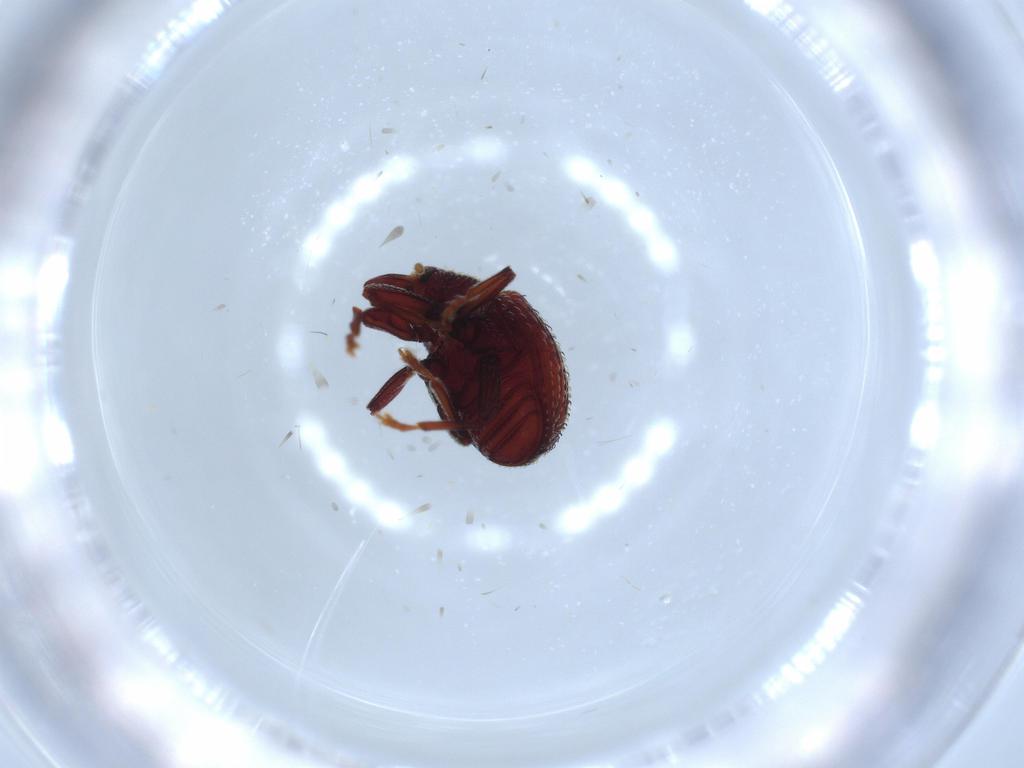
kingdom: Animalia
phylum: Arthropoda
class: Insecta
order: Coleoptera
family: Curculionidae
